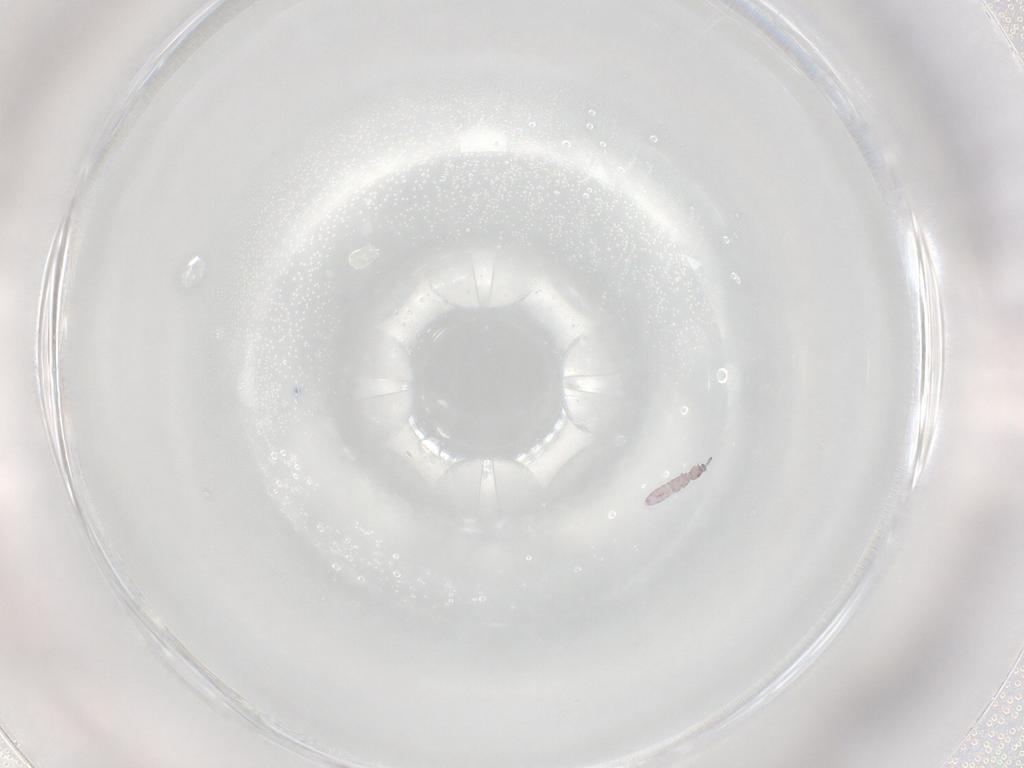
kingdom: Animalia
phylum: Arthropoda
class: Collembola
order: Entomobryomorpha
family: Isotomidae
